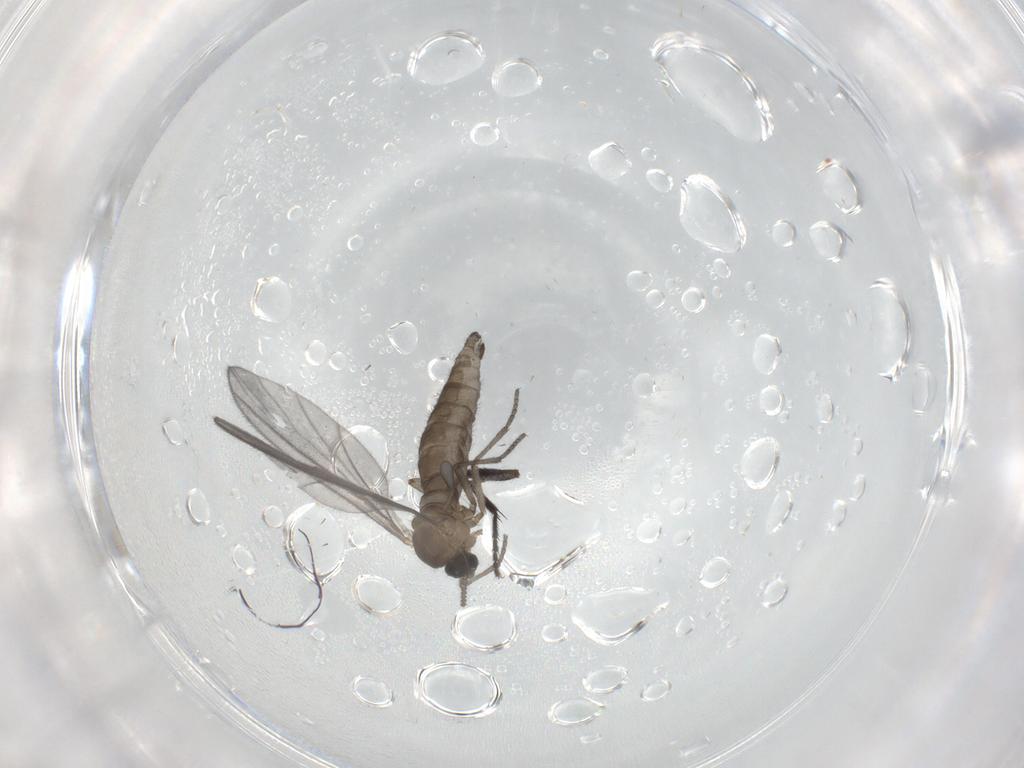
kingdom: Animalia
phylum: Arthropoda
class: Insecta
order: Diptera
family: Sciaridae
